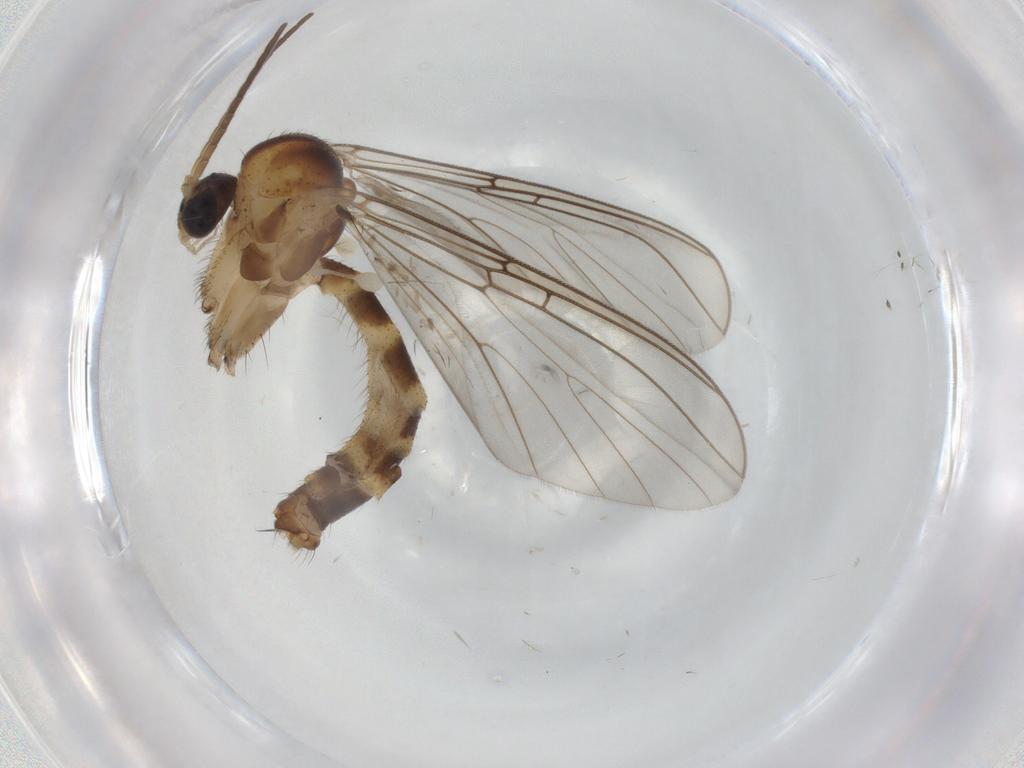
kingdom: Animalia
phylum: Arthropoda
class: Insecta
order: Diptera
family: Mycetophilidae
